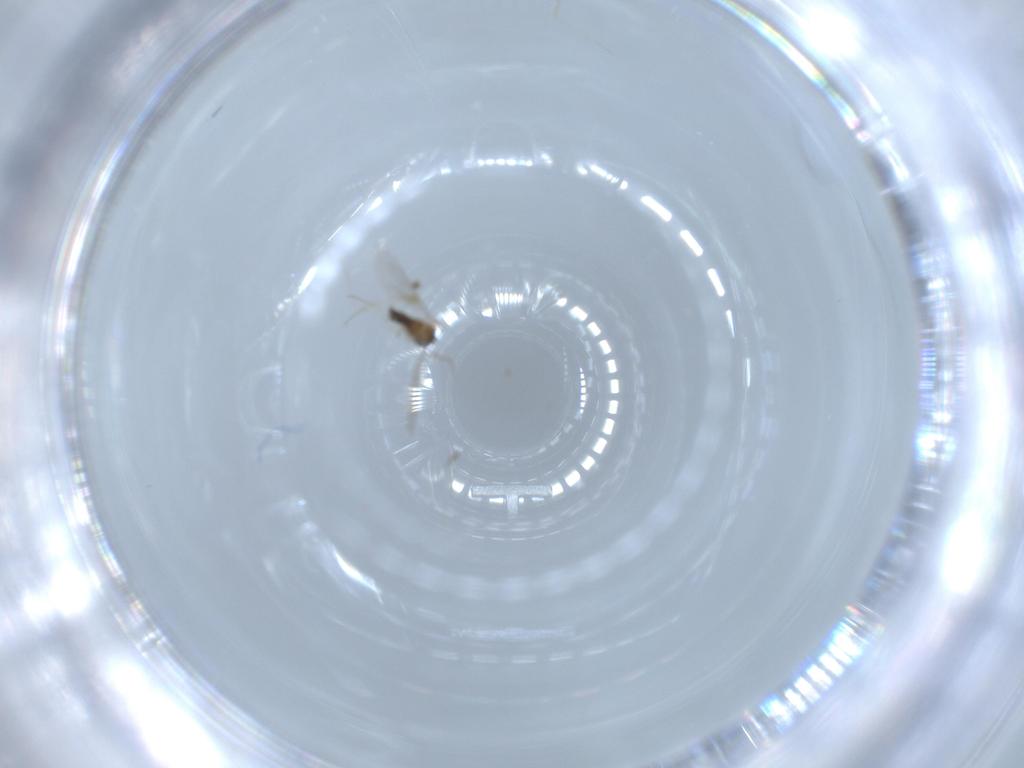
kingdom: Animalia
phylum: Arthropoda
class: Insecta
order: Diptera
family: Cecidomyiidae
